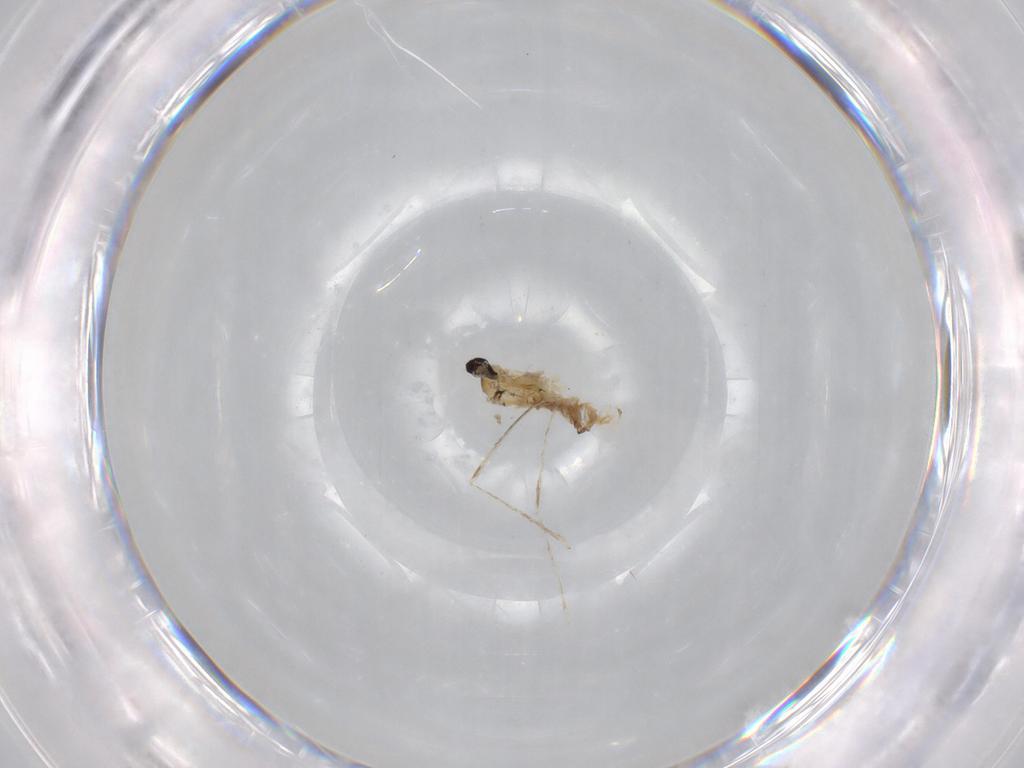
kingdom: Animalia
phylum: Arthropoda
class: Insecta
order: Diptera
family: Cecidomyiidae
